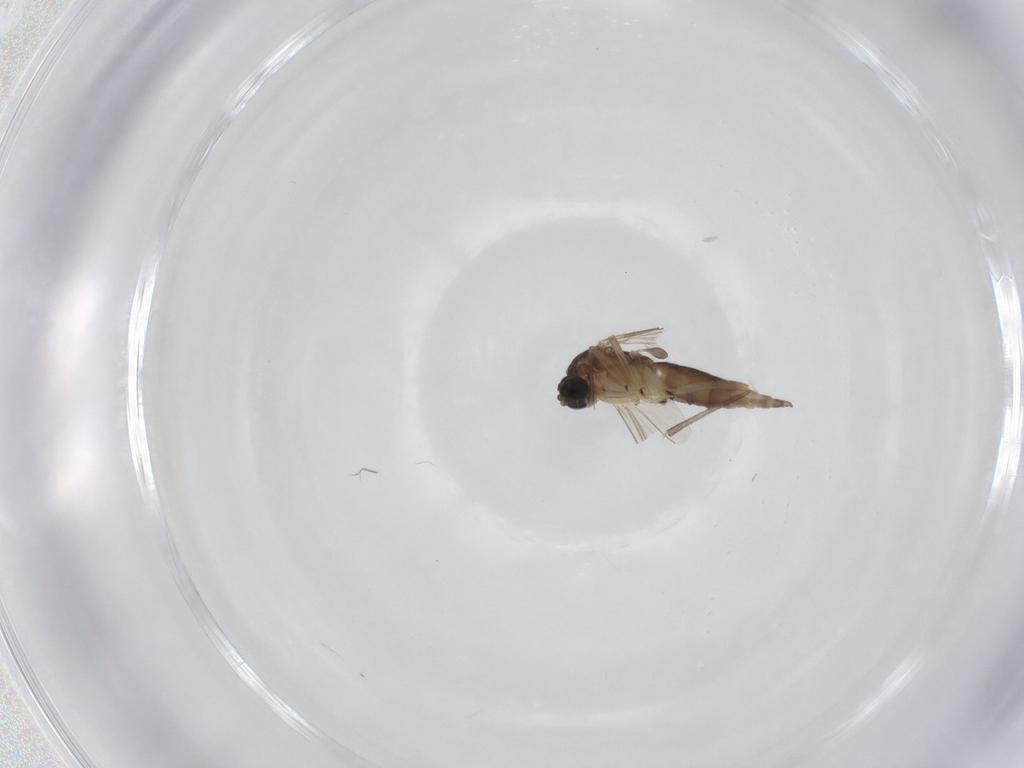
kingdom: Animalia
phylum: Arthropoda
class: Insecta
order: Diptera
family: Sciaridae
